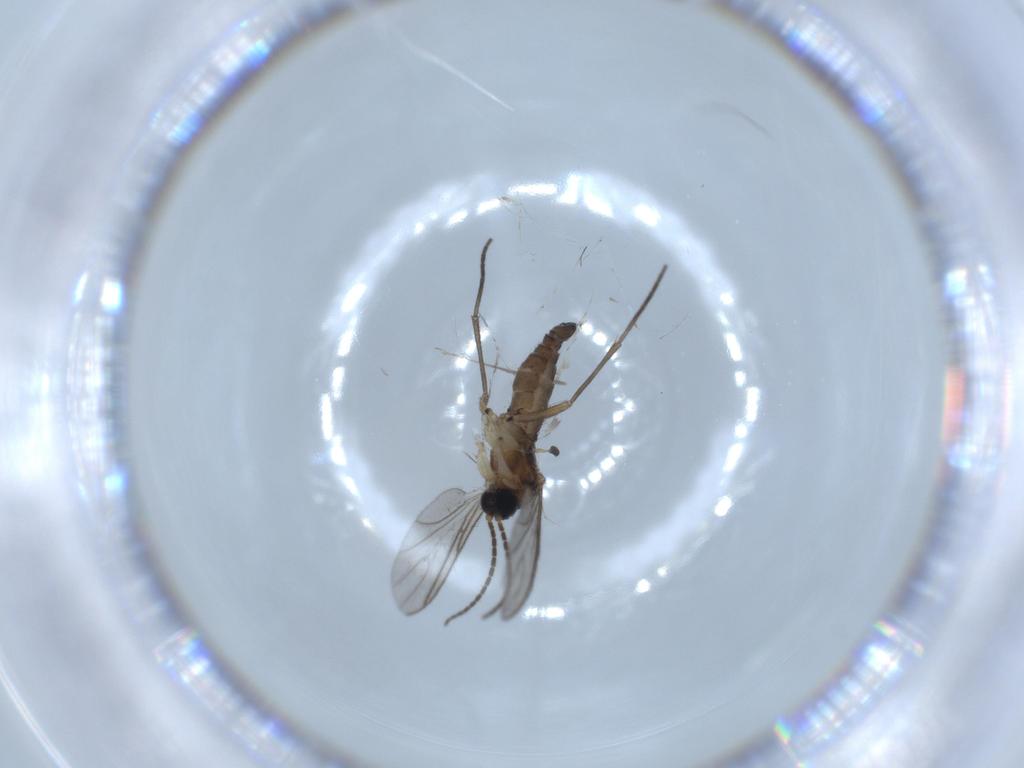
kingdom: Animalia
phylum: Arthropoda
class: Insecta
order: Diptera
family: Sciaridae
